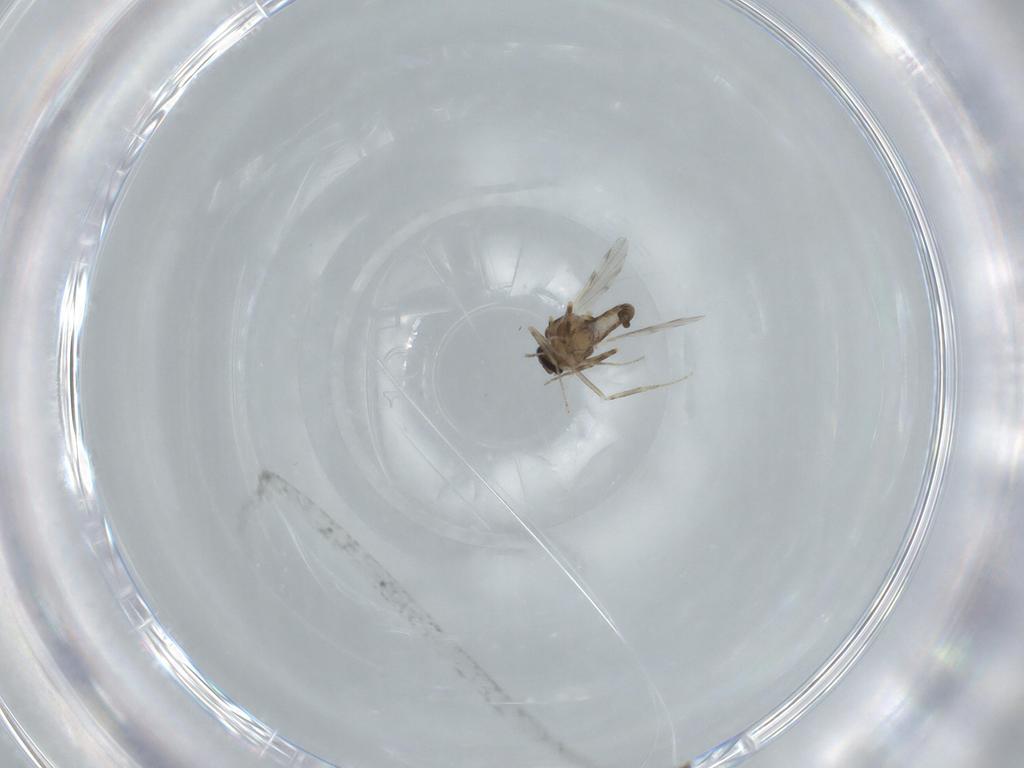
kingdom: Animalia
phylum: Arthropoda
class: Insecta
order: Diptera
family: Ceratopogonidae
